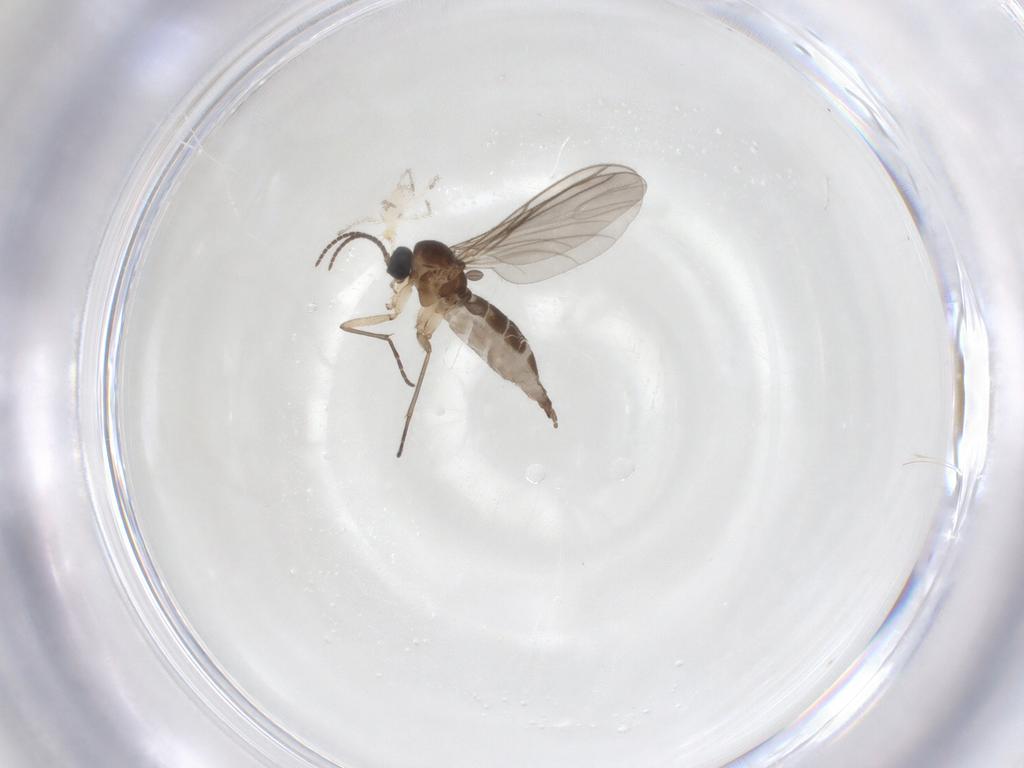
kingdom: Animalia
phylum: Arthropoda
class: Insecta
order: Diptera
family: Sciaridae
